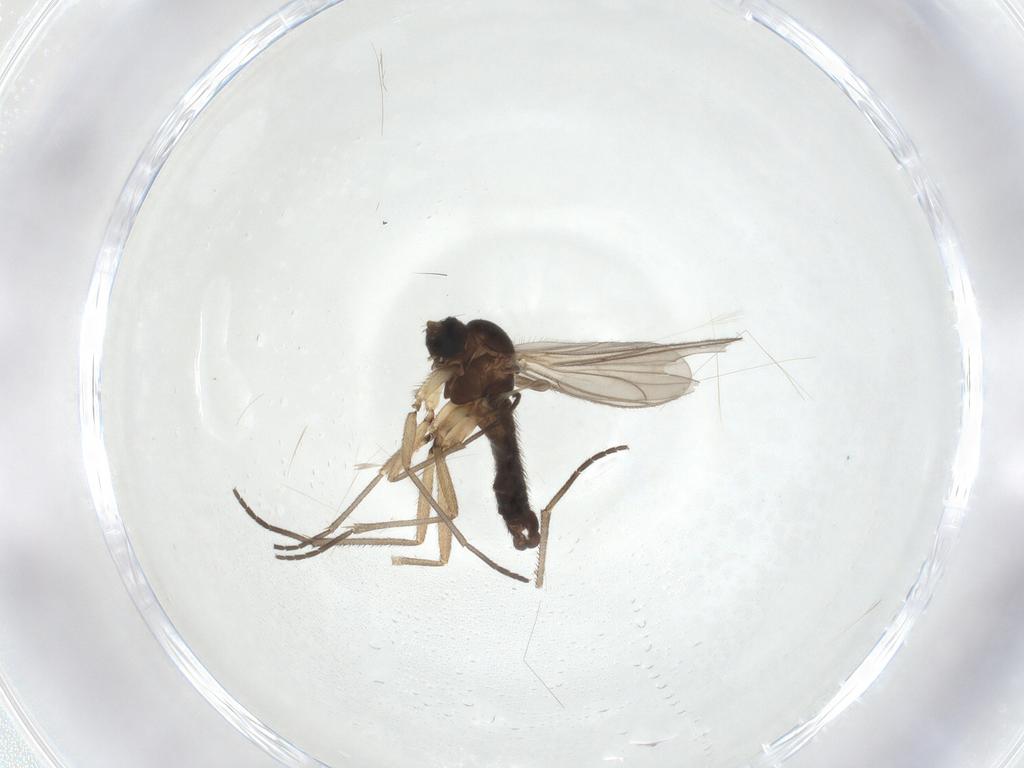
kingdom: Animalia
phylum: Arthropoda
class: Insecta
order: Diptera
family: Sciaridae
